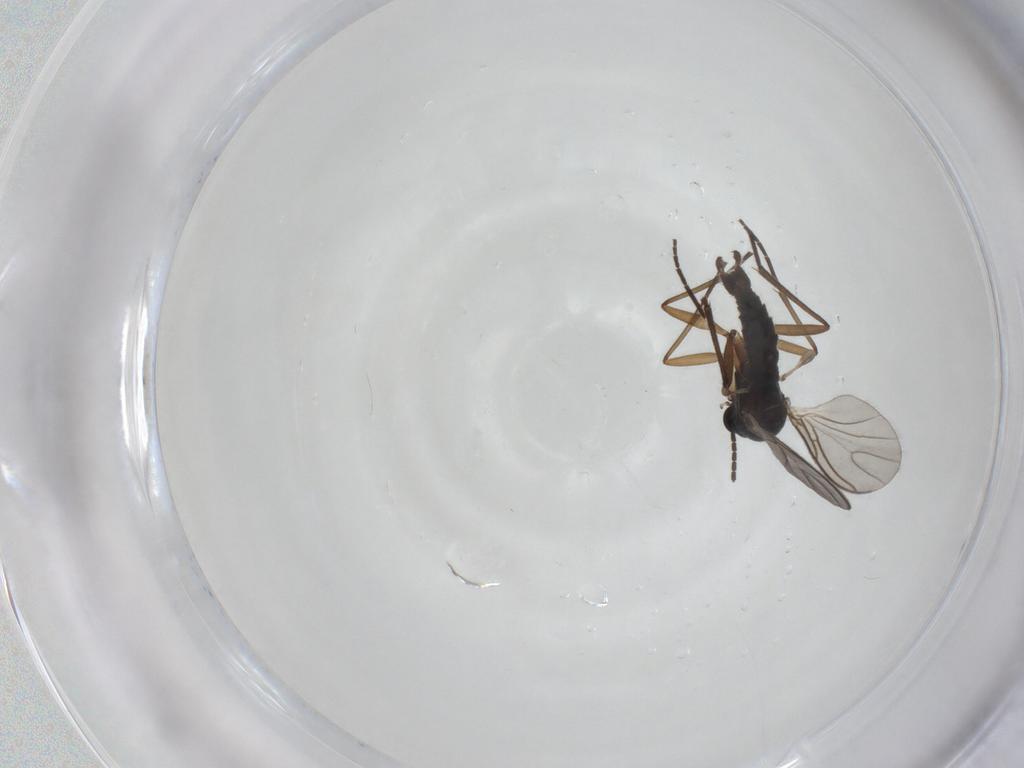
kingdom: Animalia
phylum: Arthropoda
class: Insecta
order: Diptera
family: Sciaridae
